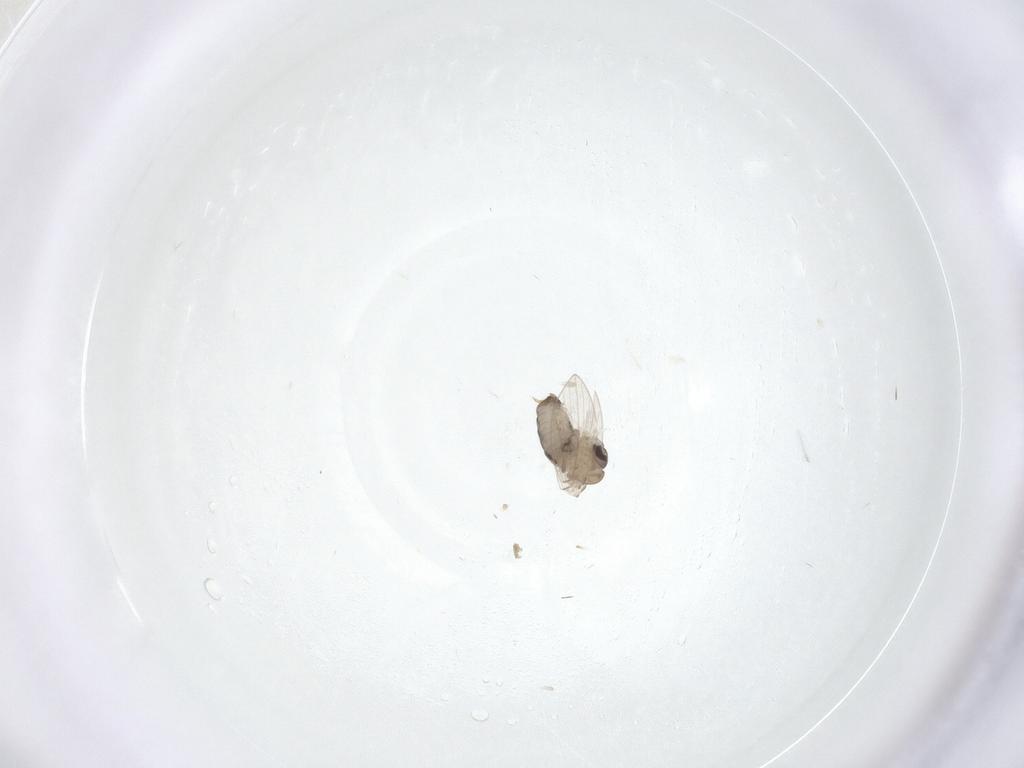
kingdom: Animalia
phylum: Arthropoda
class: Insecta
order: Diptera
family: Psychodidae
